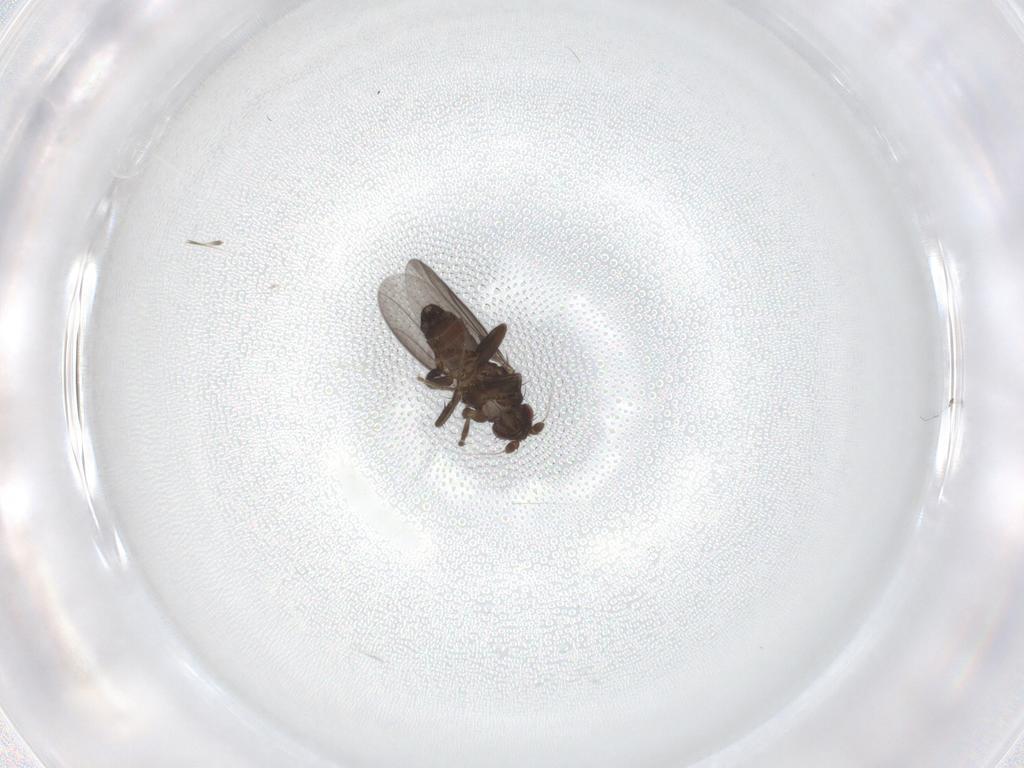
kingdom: Animalia
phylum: Arthropoda
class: Insecta
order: Diptera
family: Sphaeroceridae
